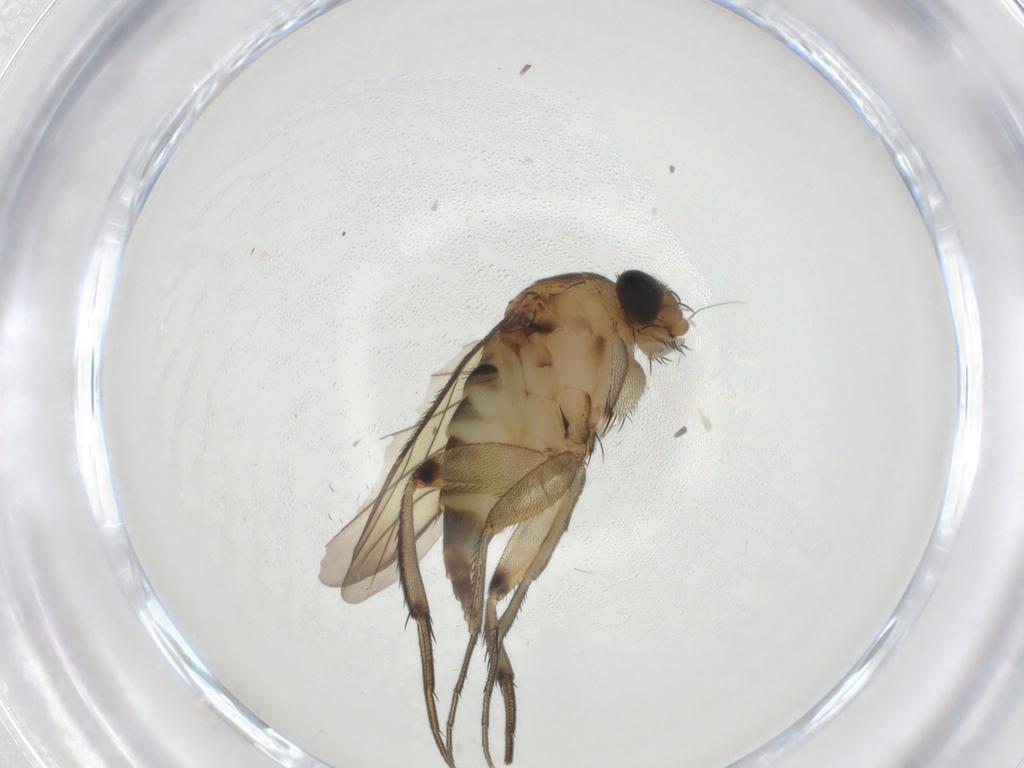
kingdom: Animalia
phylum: Arthropoda
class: Insecta
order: Diptera
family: Phoridae
